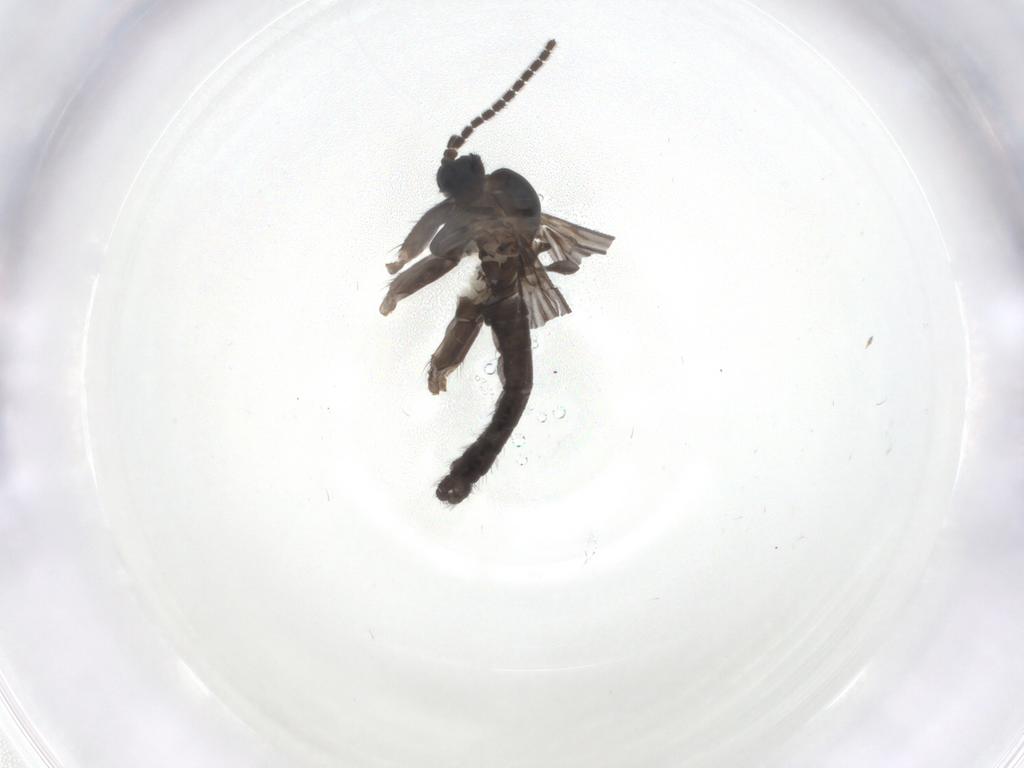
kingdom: Animalia
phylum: Arthropoda
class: Insecta
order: Diptera
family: Sciaridae
